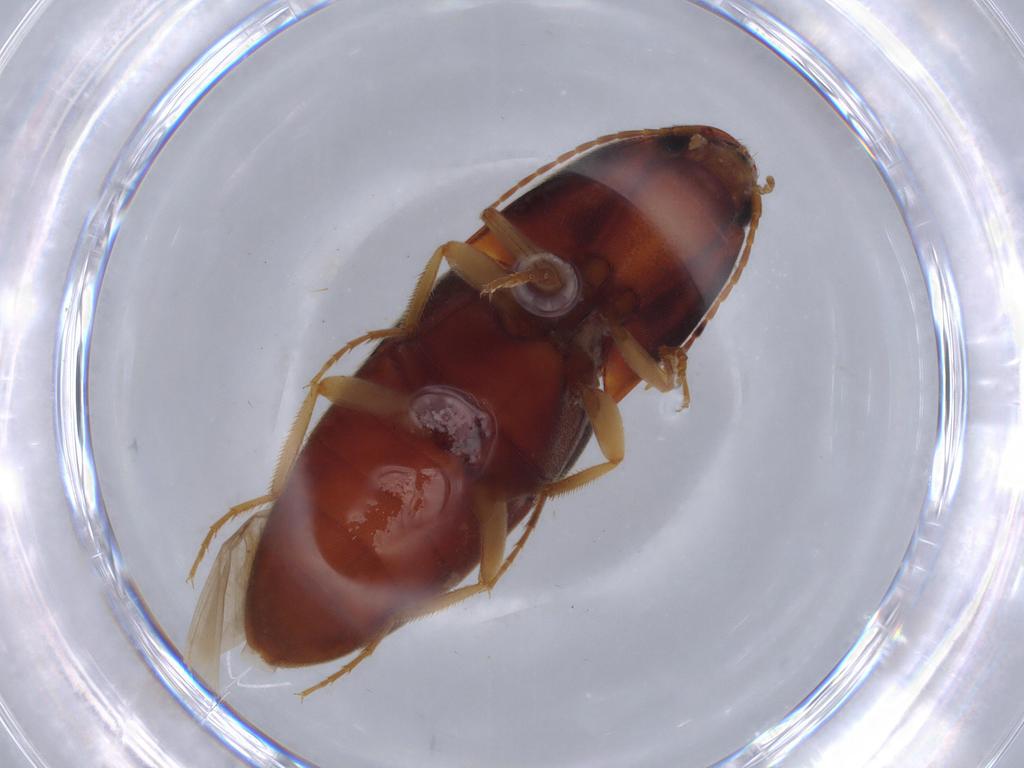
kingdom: Animalia
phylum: Arthropoda
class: Insecta
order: Coleoptera
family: Elateridae
